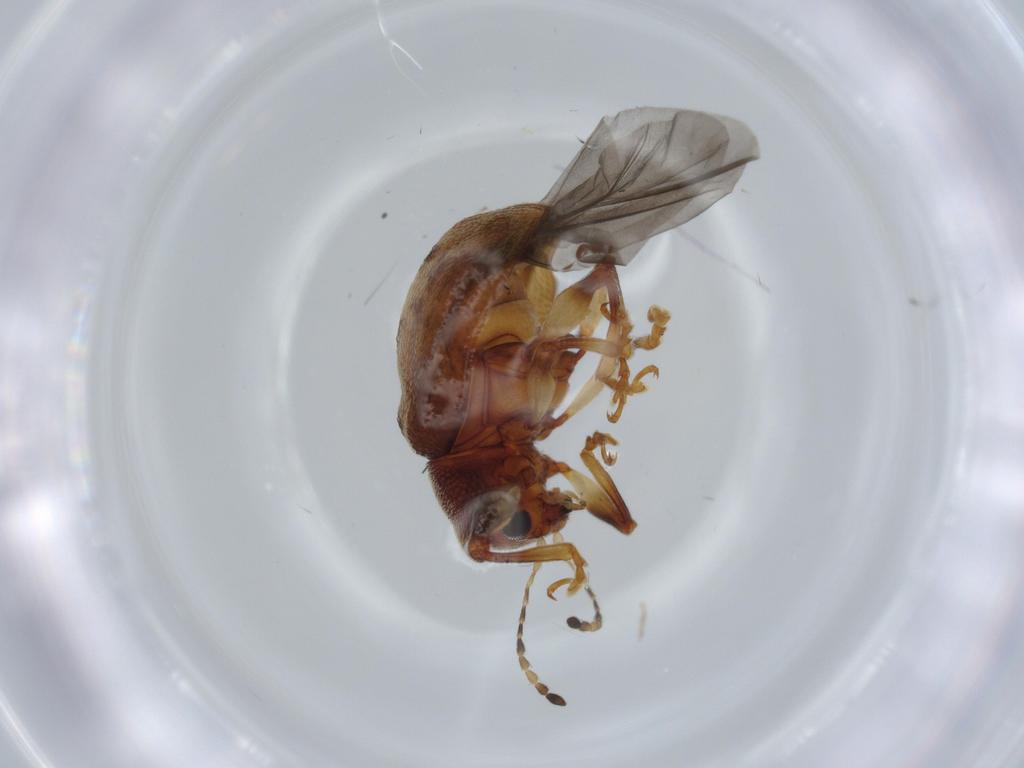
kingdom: Animalia
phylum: Arthropoda
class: Insecta
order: Coleoptera
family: Chrysomelidae
